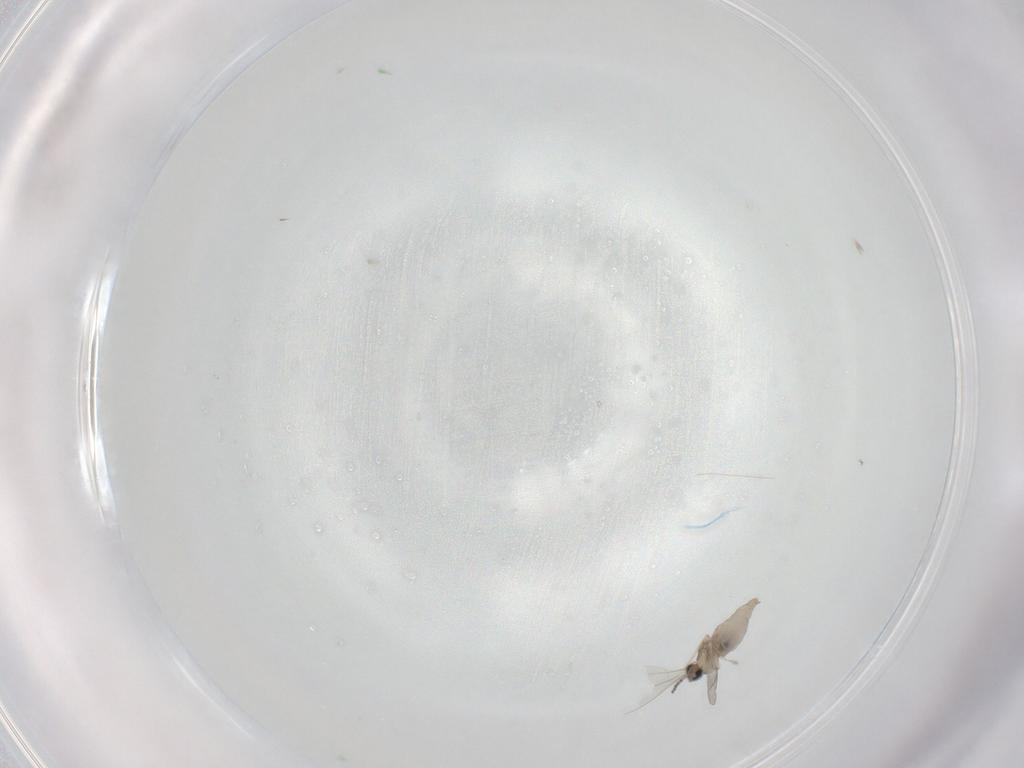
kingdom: Animalia
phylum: Arthropoda
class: Insecta
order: Diptera
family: Cecidomyiidae
